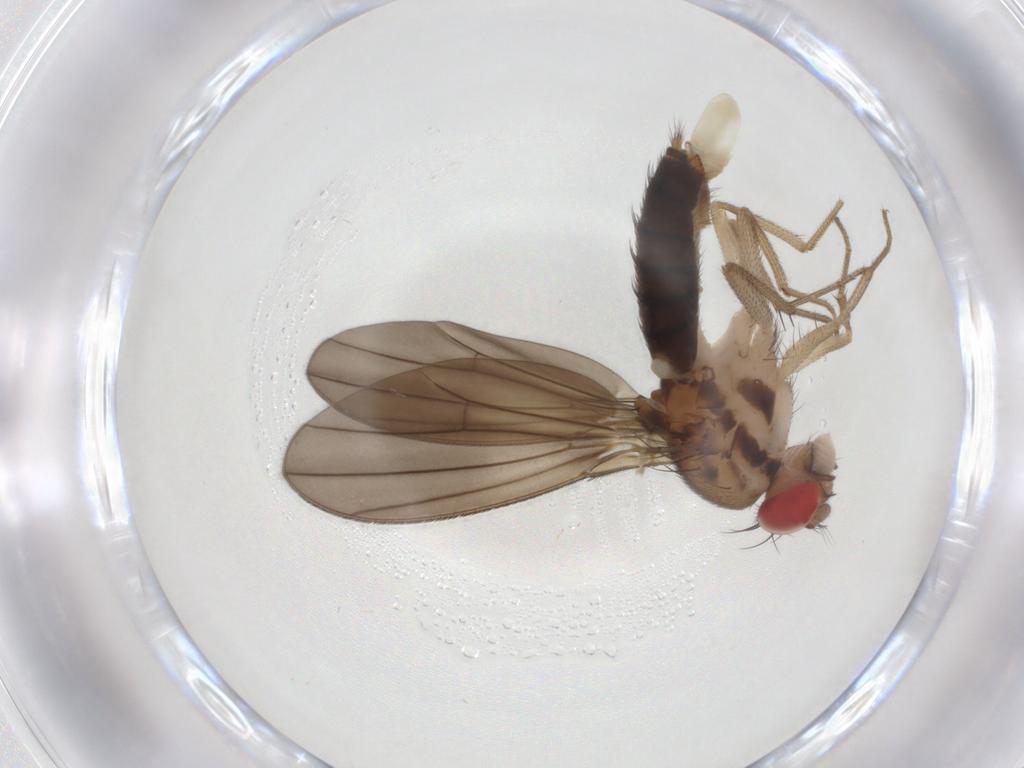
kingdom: Animalia
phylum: Arthropoda
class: Insecta
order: Diptera
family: Drosophilidae
